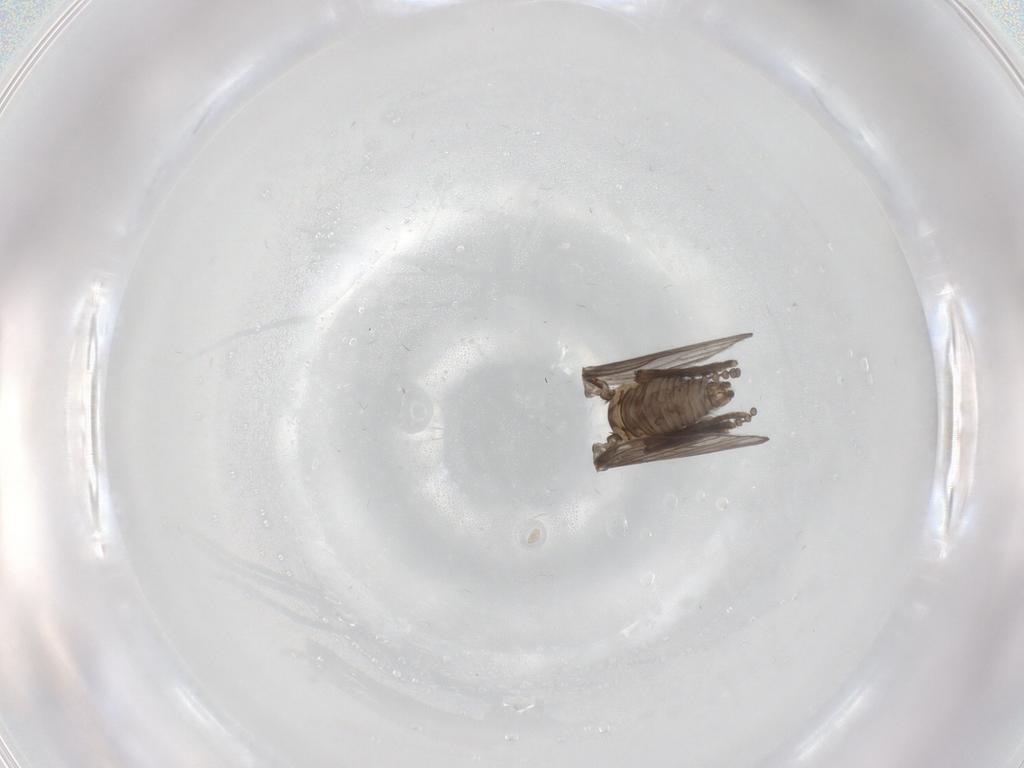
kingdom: Animalia
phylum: Arthropoda
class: Insecta
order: Diptera
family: Psychodidae
